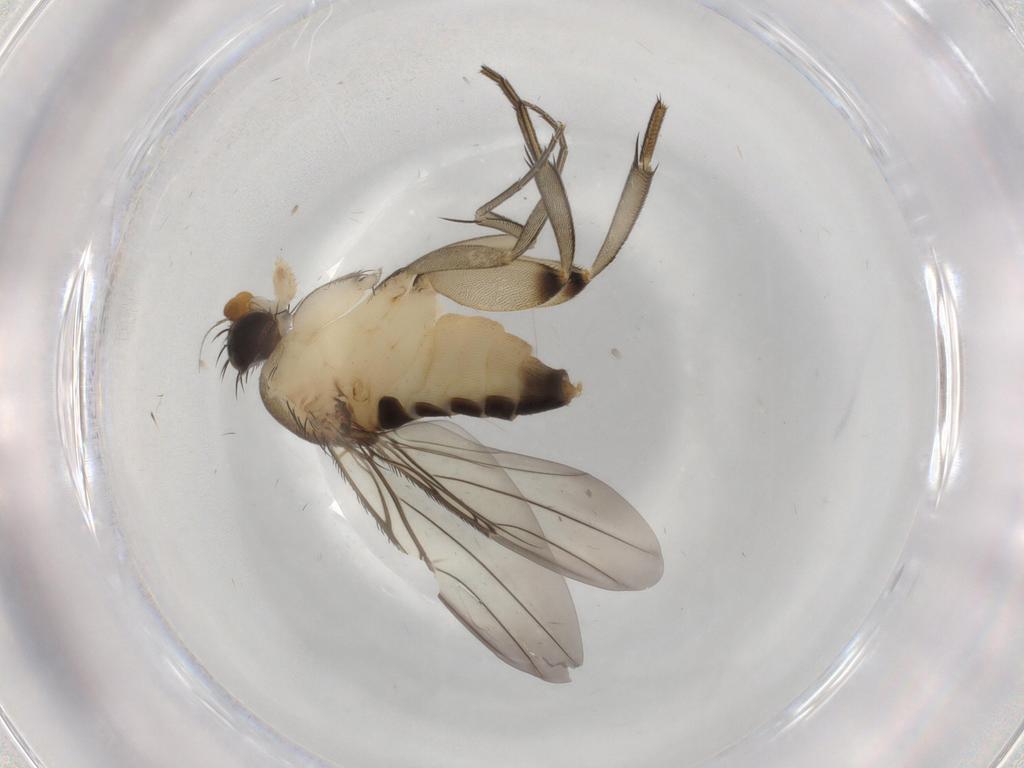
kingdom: Animalia
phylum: Arthropoda
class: Insecta
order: Diptera
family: Phoridae
